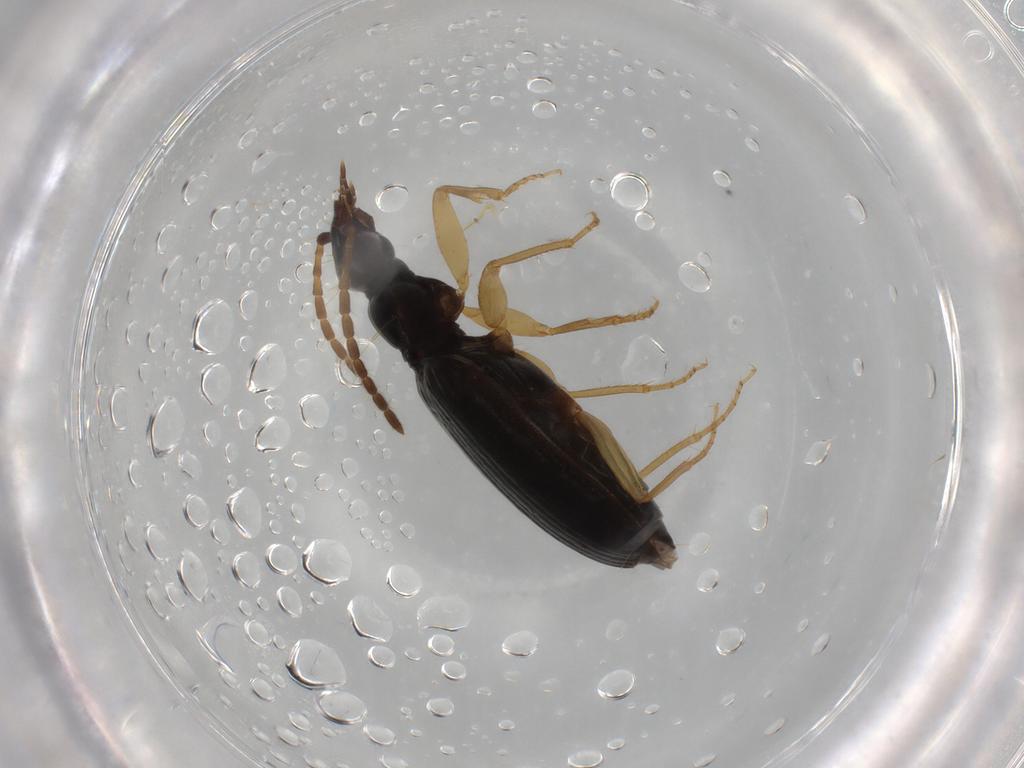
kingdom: Animalia
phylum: Arthropoda
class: Insecta
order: Coleoptera
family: Carabidae
